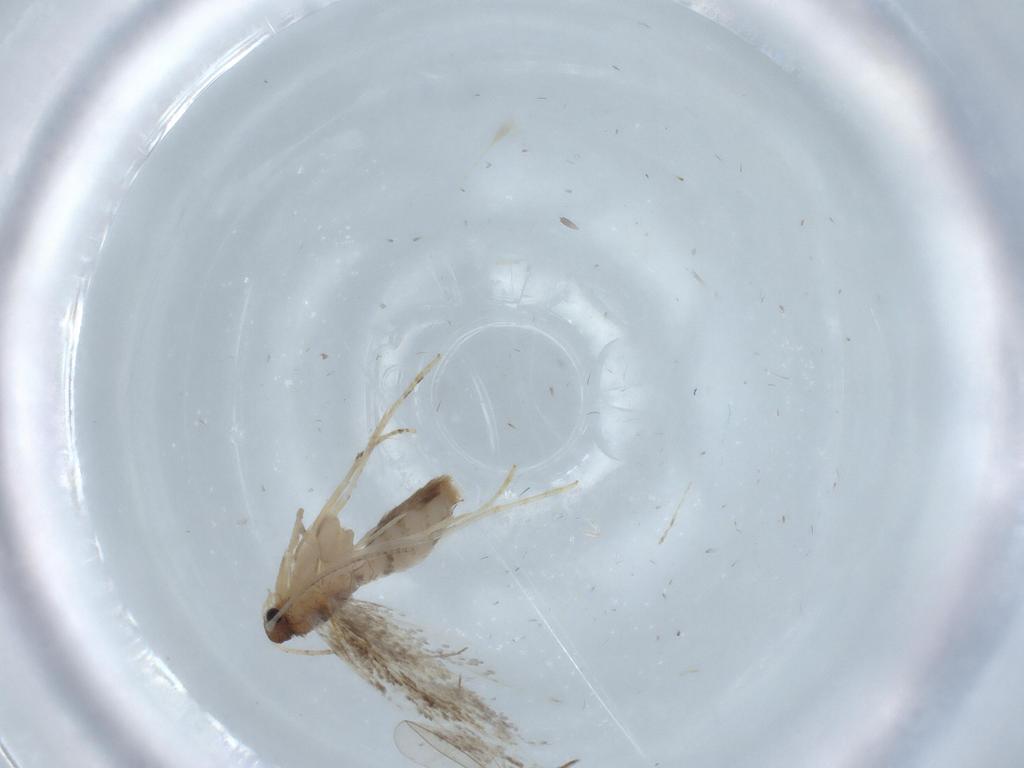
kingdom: Animalia
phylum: Arthropoda
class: Insecta
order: Lepidoptera
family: Tineidae
